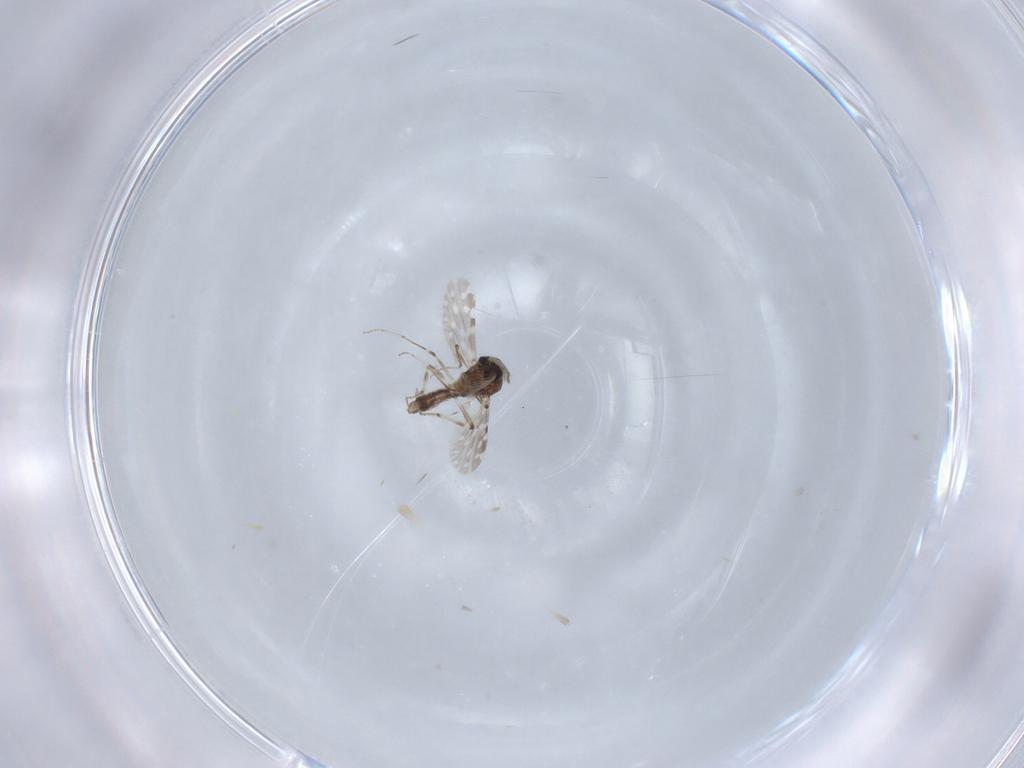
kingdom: Animalia
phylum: Arthropoda
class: Insecta
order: Diptera
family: Ceratopogonidae
